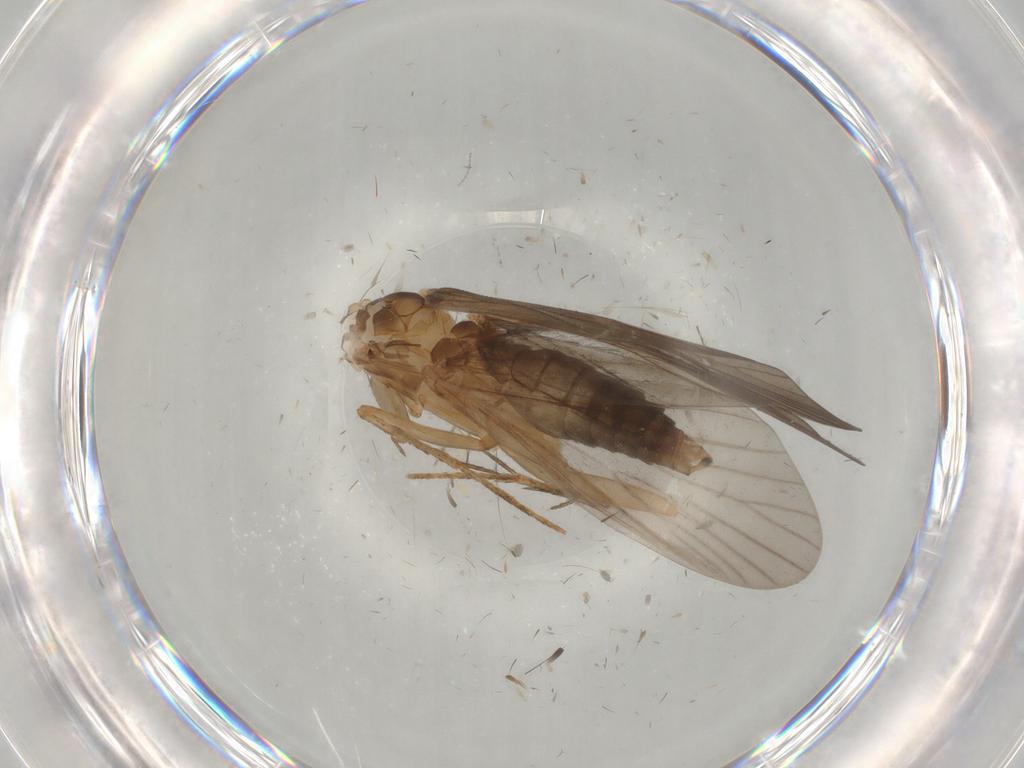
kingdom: Animalia
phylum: Arthropoda
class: Insecta
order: Trichoptera
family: Philopotamidae
